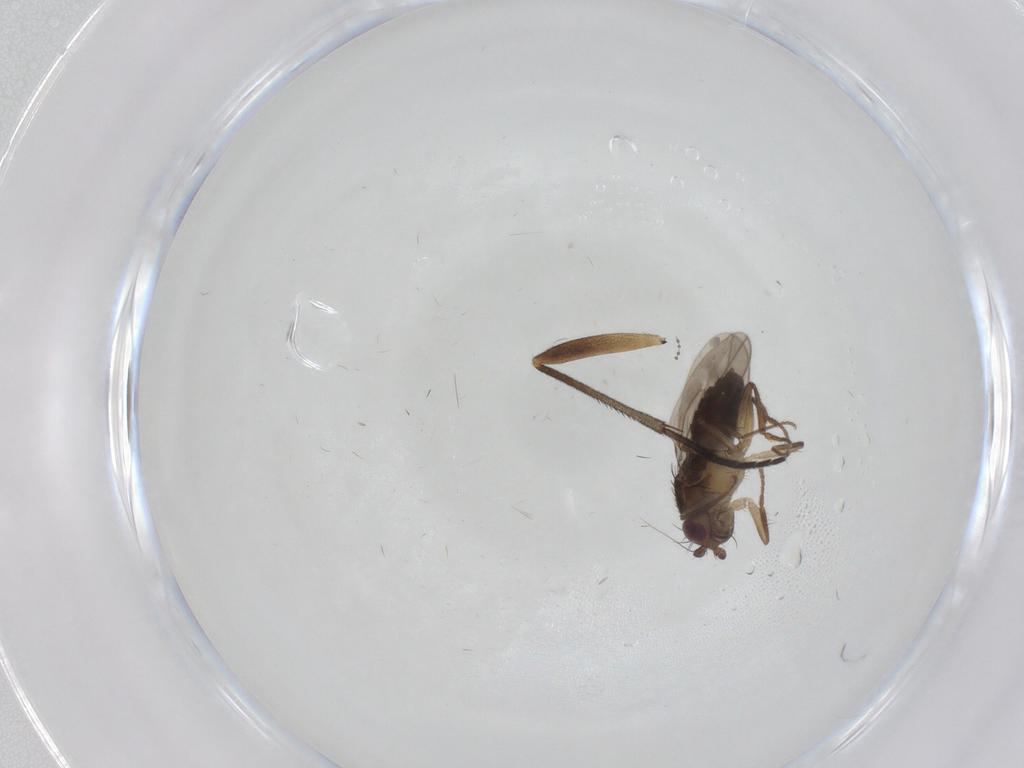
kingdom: Animalia
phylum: Arthropoda
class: Insecta
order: Diptera
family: Sphaeroceridae
